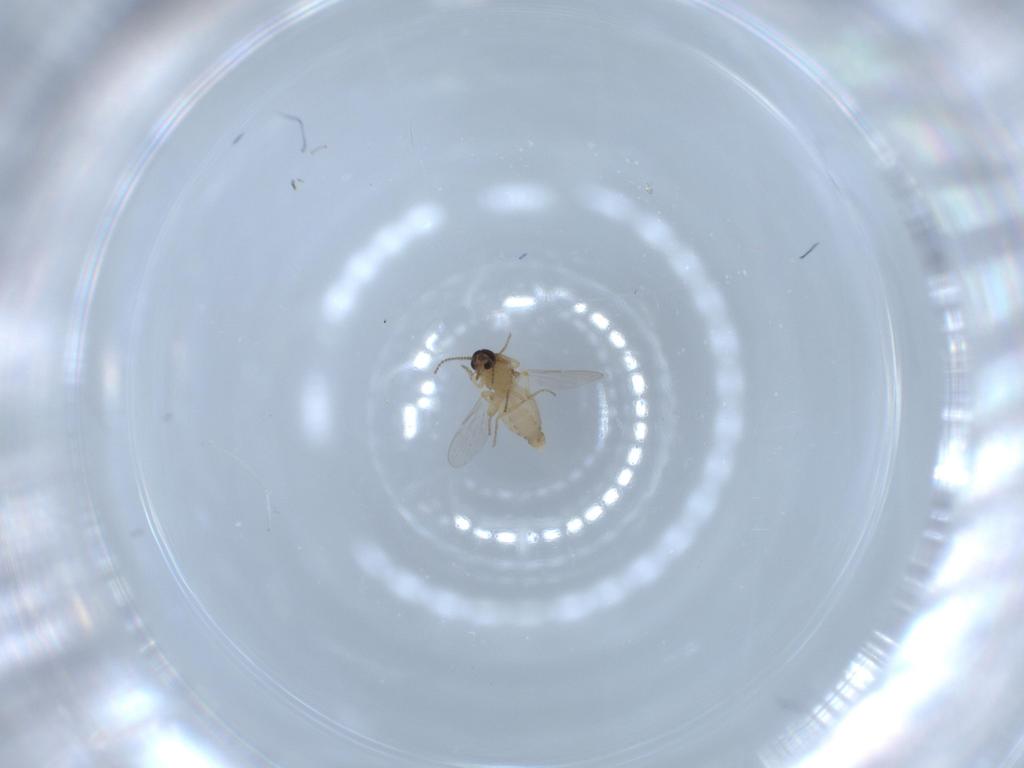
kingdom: Animalia
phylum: Arthropoda
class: Insecta
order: Diptera
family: Ceratopogonidae
